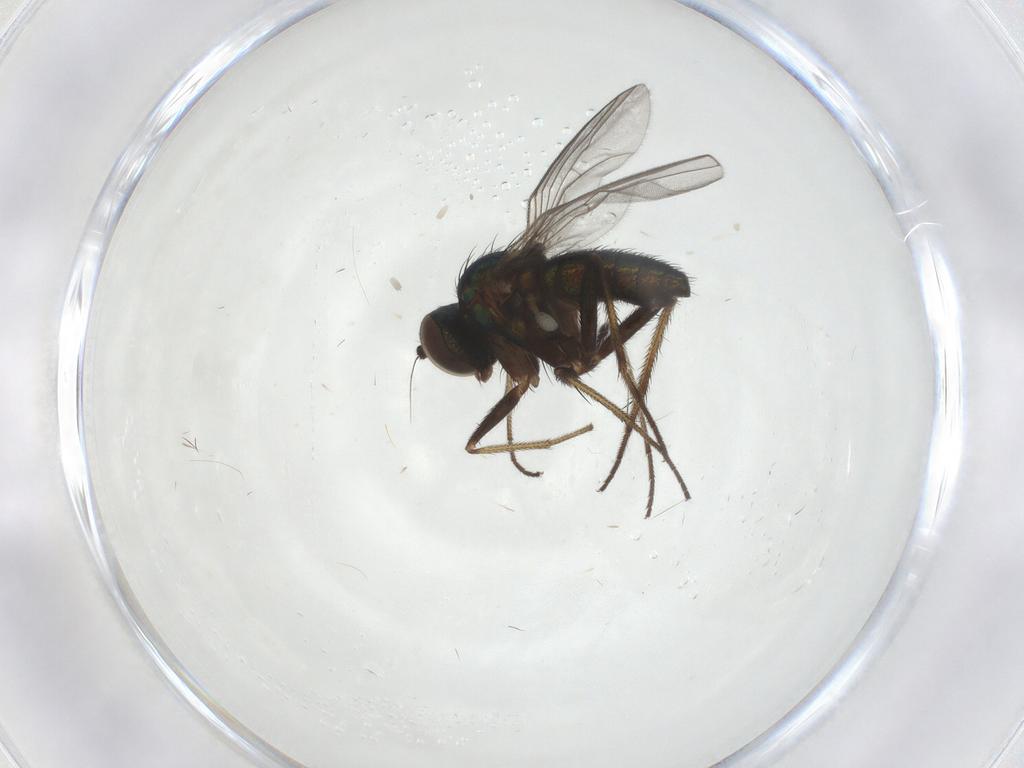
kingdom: Animalia
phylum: Arthropoda
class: Insecta
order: Diptera
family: Dolichopodidae
